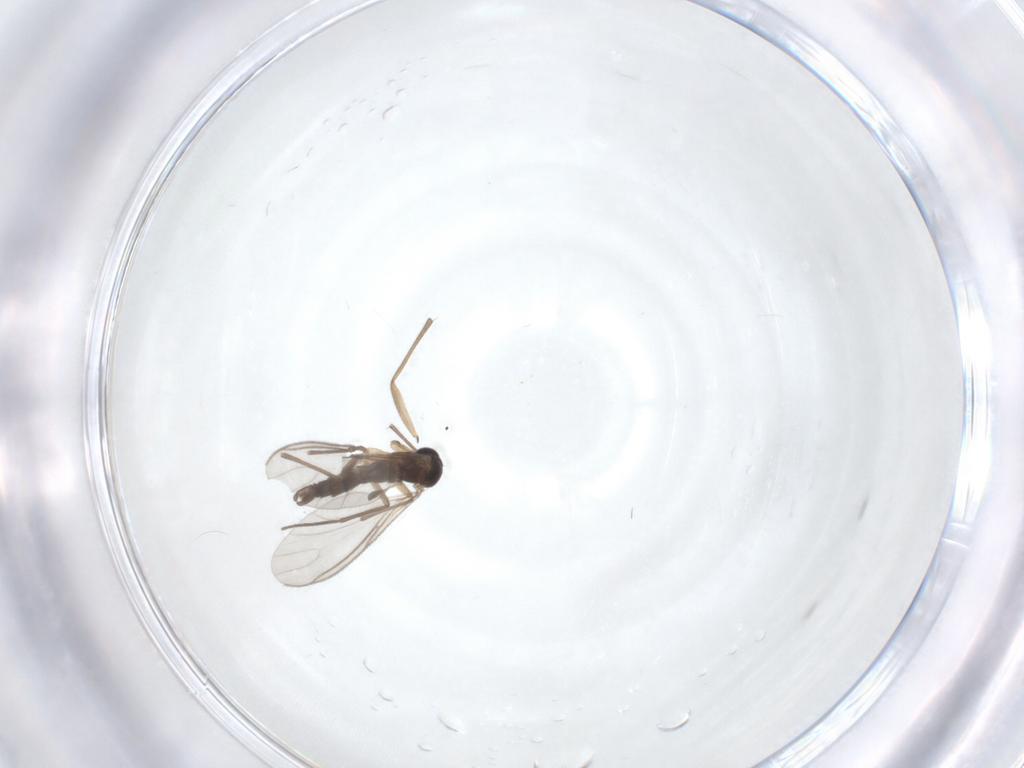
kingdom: Animalia
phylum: Arthropoda
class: Insecta
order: Diptera
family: Sciaridae
